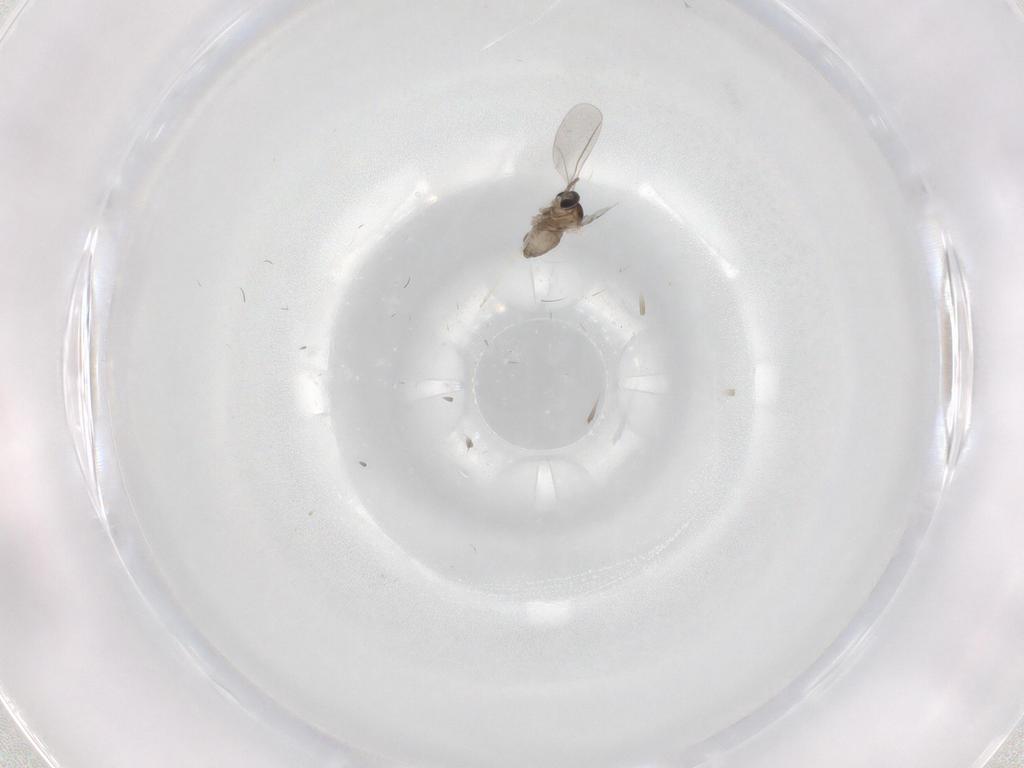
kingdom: Animalia
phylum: Arthropoda
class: Insecta
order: Diptera
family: Cecidomyiidae
